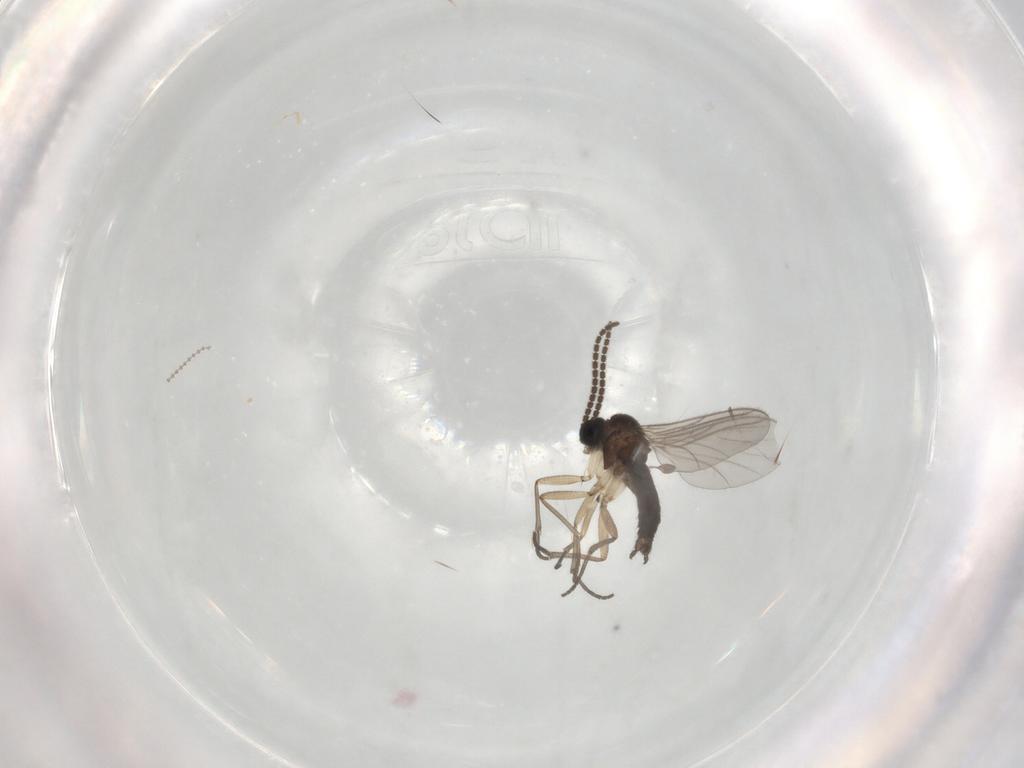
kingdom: Animalia
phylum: Arthropoda
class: Insecta
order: Diptera
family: Sciaridae
